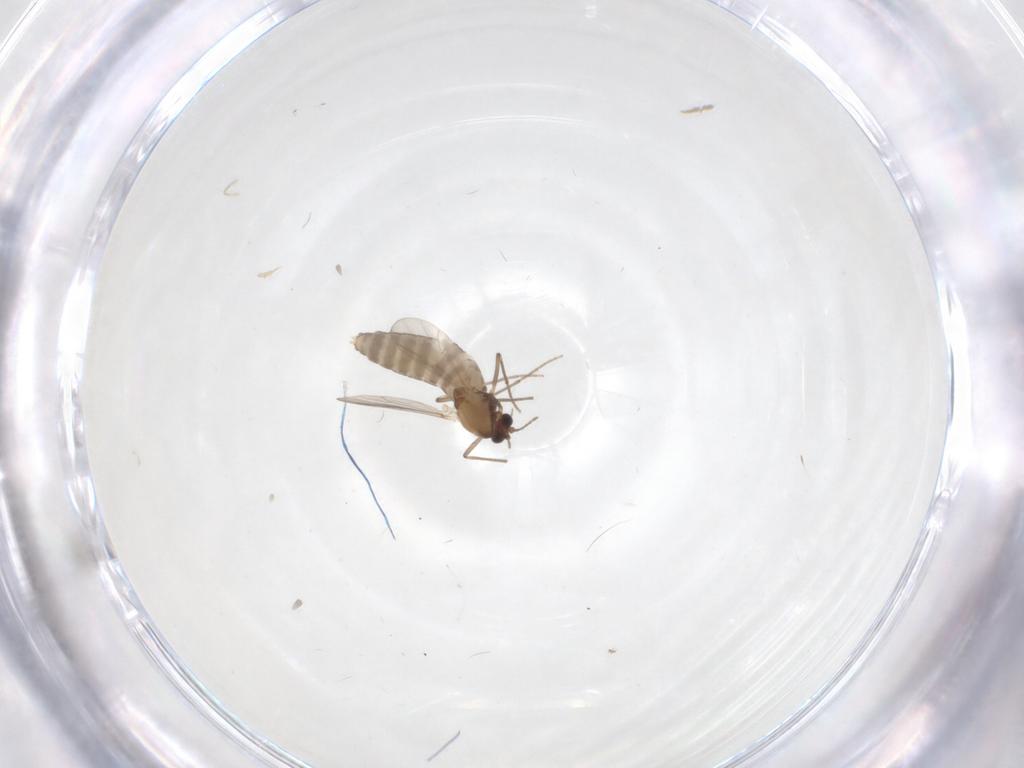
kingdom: Animalia
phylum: Arthropoda
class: Insecta
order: Diptera
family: Chironomidae
